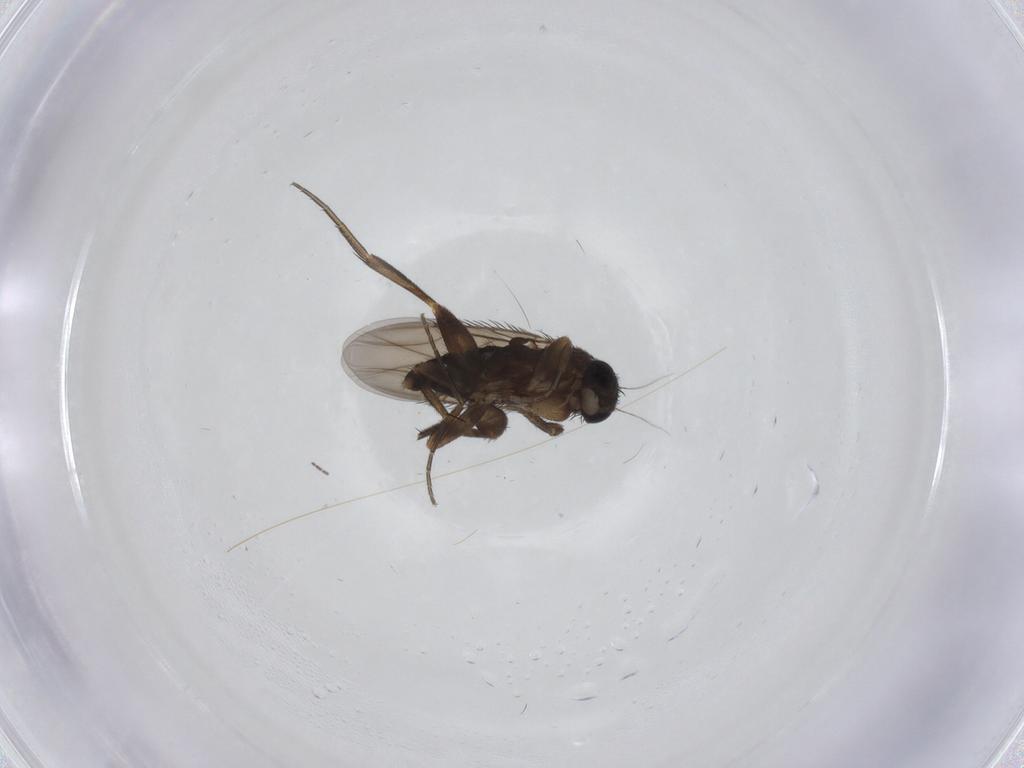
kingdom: Animalia
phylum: Arthropoda
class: Insecta
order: Diptera
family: Phoridae
